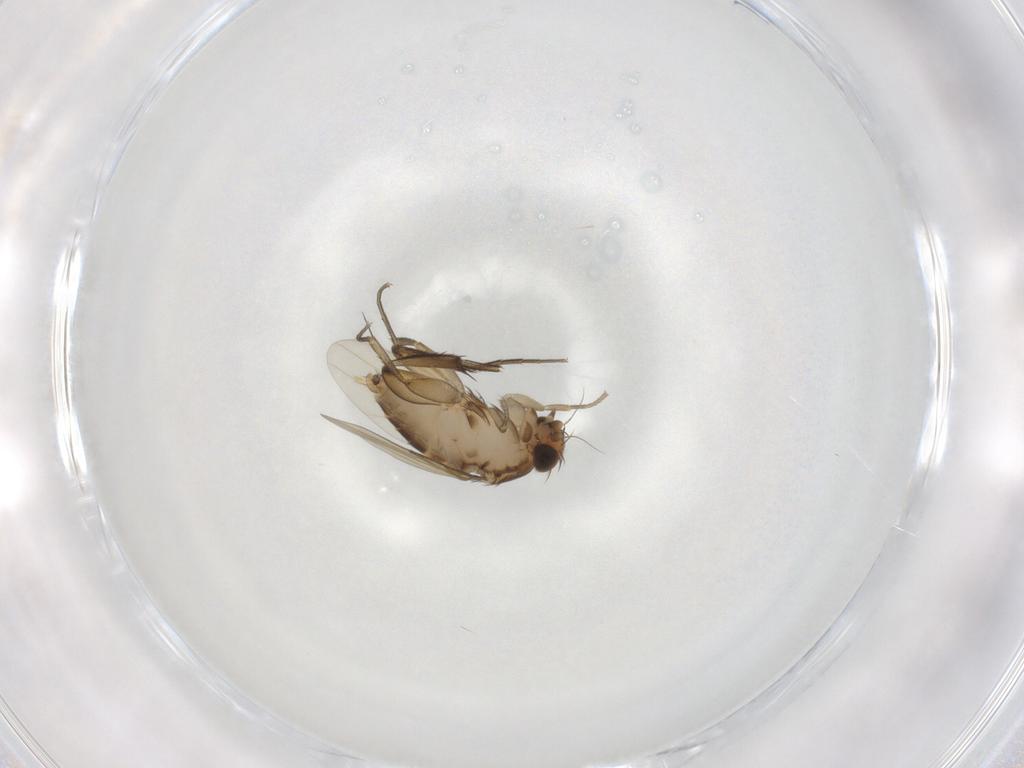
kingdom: Animalia
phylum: Arthropoda
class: Insecta
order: Diptera
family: Phoridae
